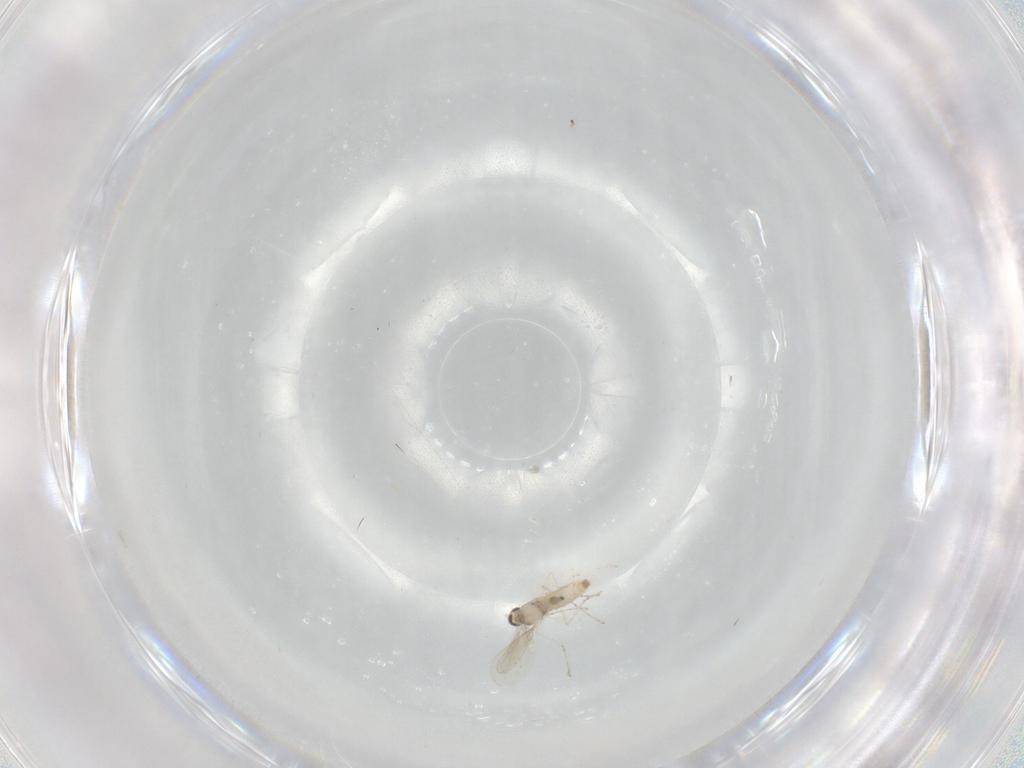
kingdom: Animalia
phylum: Arthropoda
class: Insecta
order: Diptera
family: Cecidomyiidae
